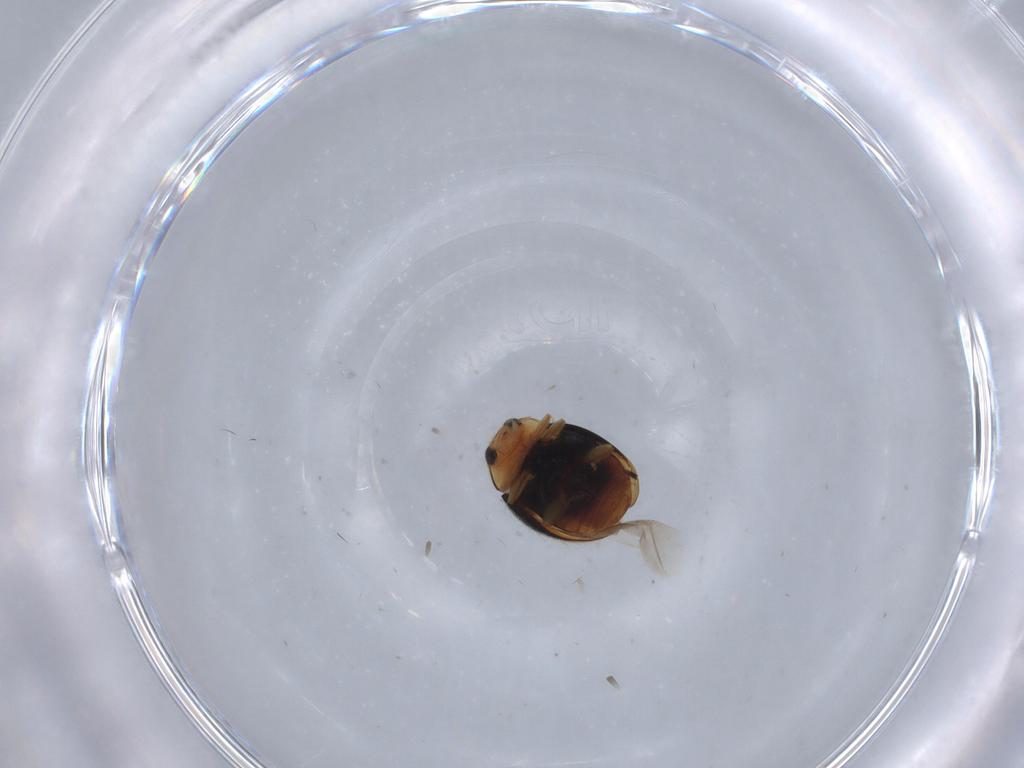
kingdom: Animalia
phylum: Arthropoda
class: Insecta
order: Coleoptera
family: Coccinellidae
